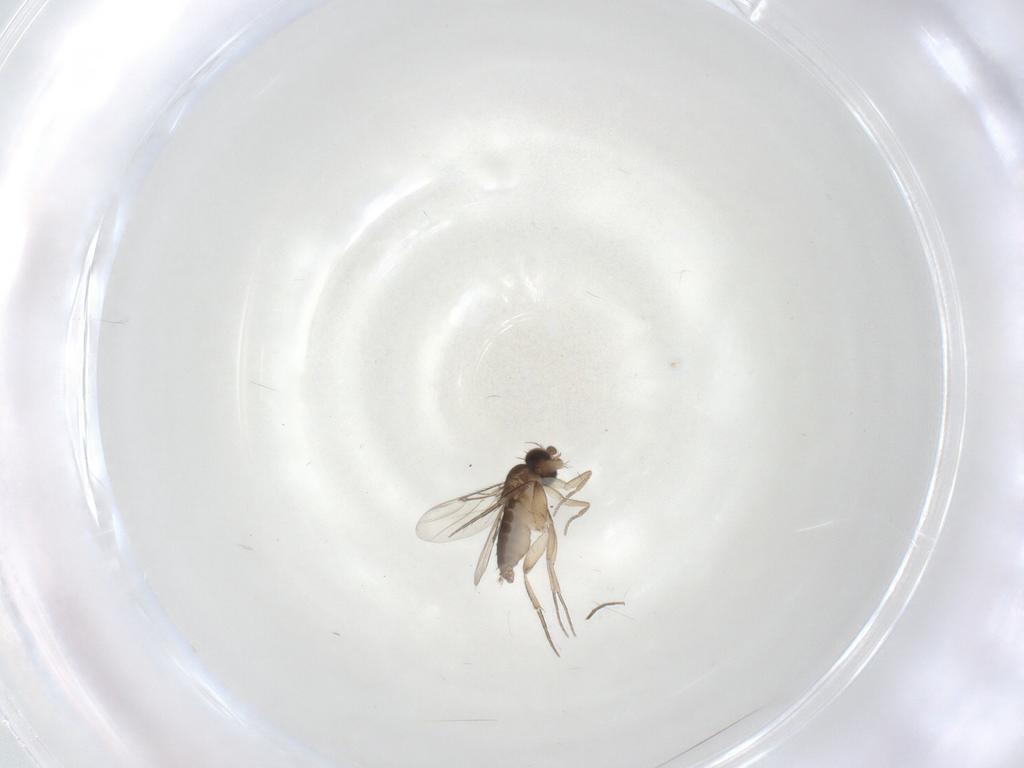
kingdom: Animalia
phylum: Arthropoda
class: Insecta
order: Diptera
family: Phoridae
